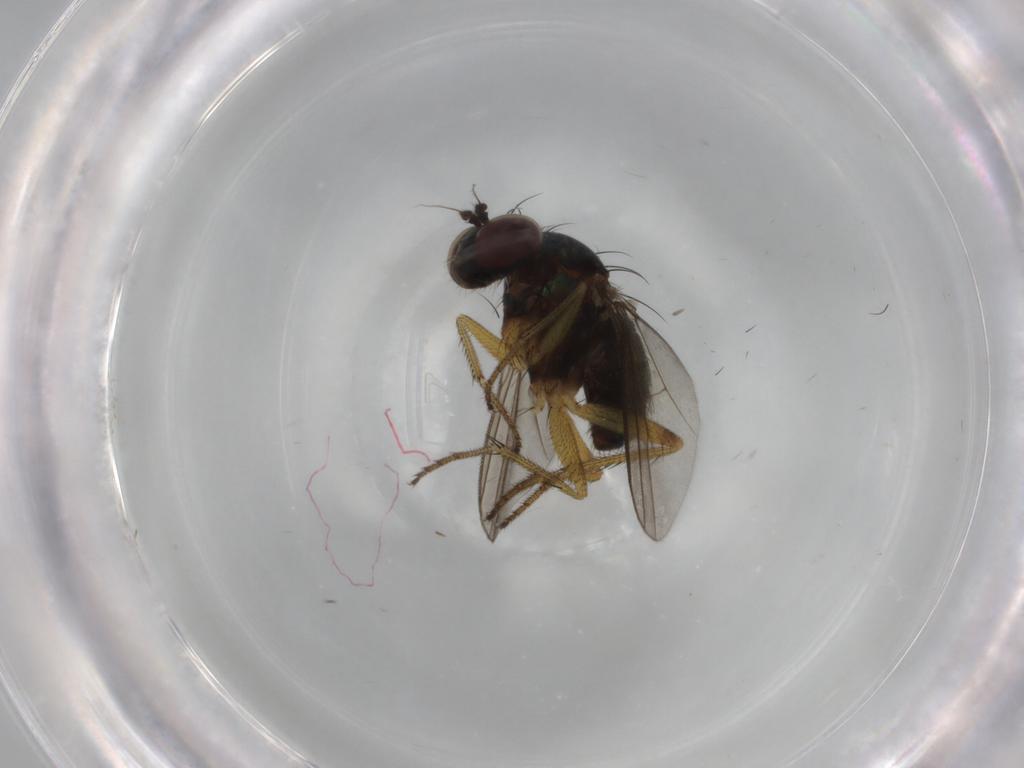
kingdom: Animalia
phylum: Arthropoda
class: Insecta
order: Diptera
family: Dolichopodidae
